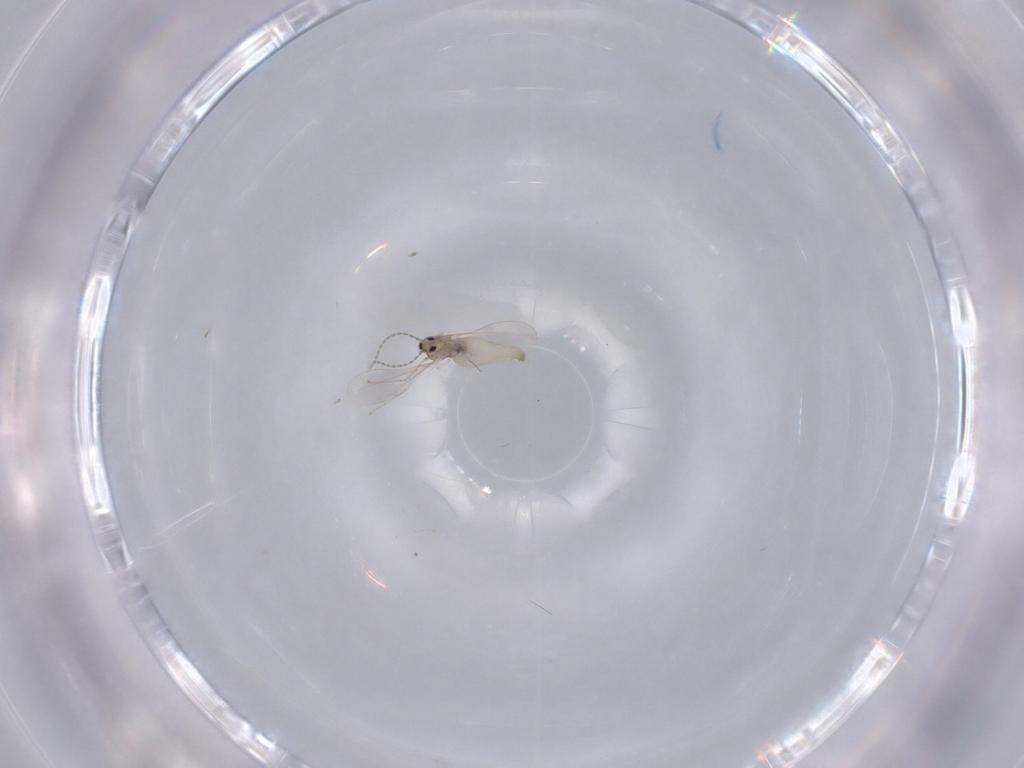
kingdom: Animalia
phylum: Arthropoda
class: Insecta
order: Diptera
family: Cecidomyiidae
